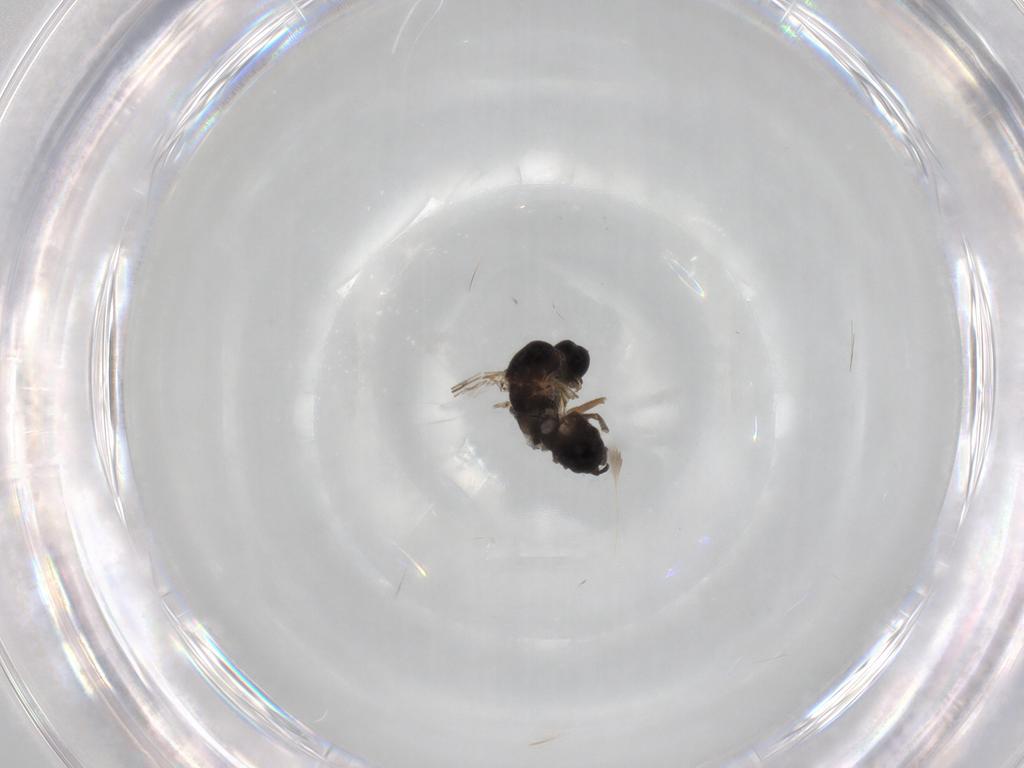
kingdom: Animalia
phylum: Arthropoda
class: Insecta
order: Diptera
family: Sciaridae
